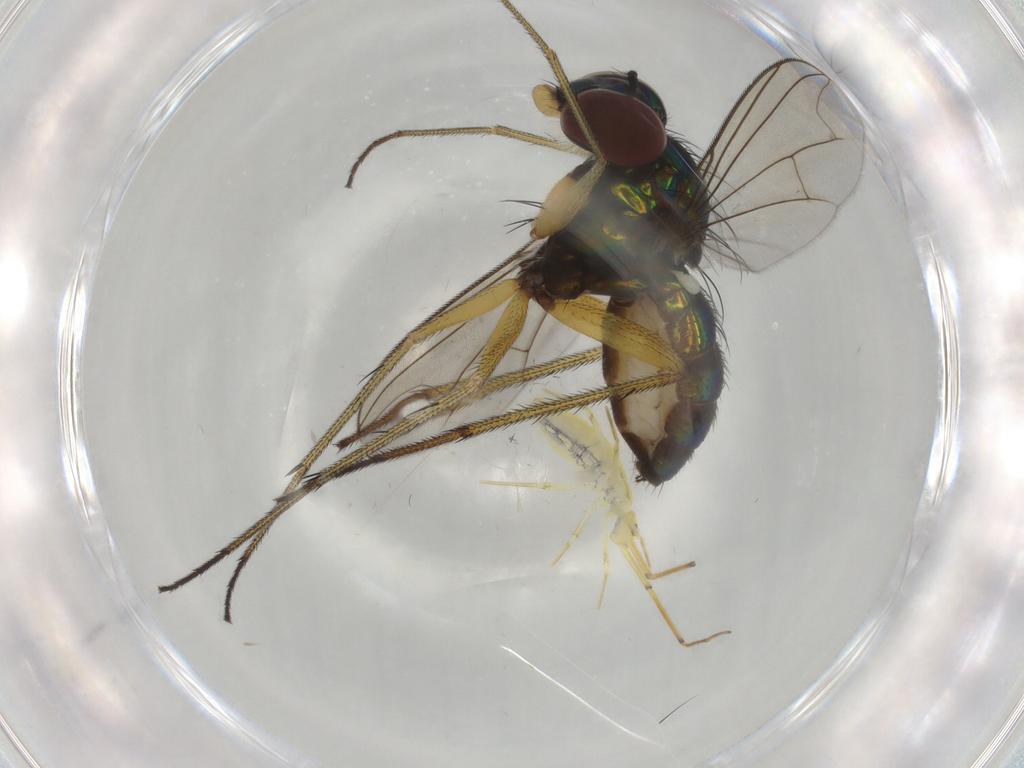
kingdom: Animalia
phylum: Arthropoda
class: Insecta
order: Diptera
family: Dolichopodidae
